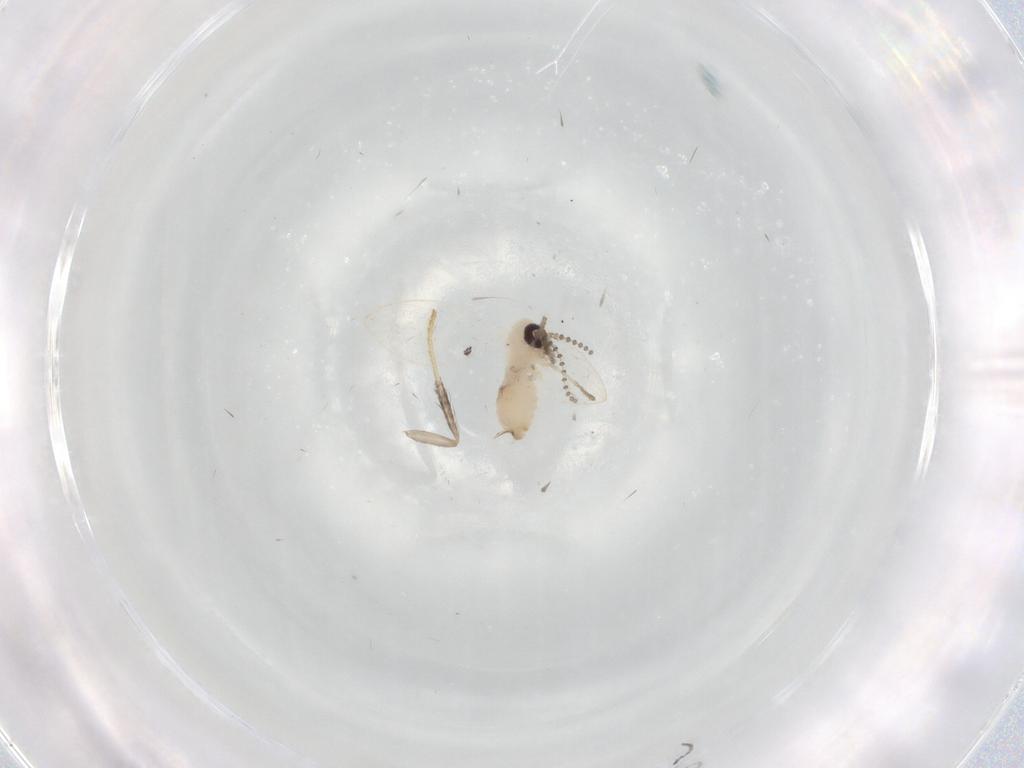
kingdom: Animalia
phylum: Arthropoda
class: Insecta
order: Diptera
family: Psychodidae
